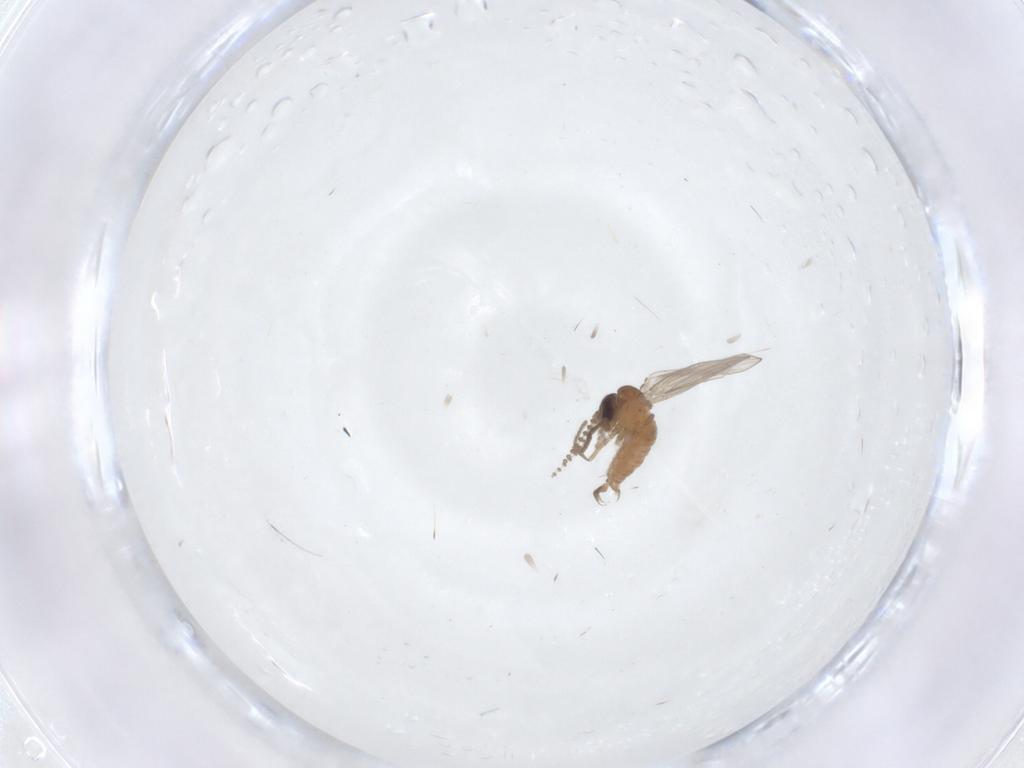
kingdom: Animalia
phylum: Arthropoda
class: Insecta
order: Diptera
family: Psychodidae
